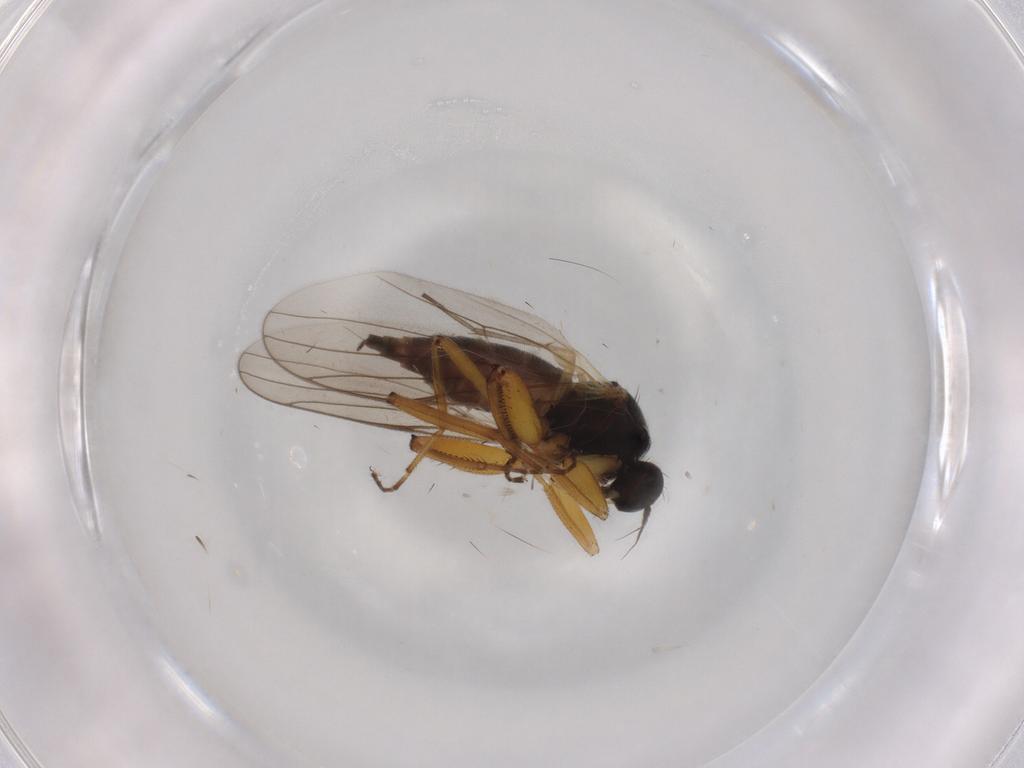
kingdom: Animalia
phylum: Arthropoda
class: Insecta
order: Diptera
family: Hybotidae
